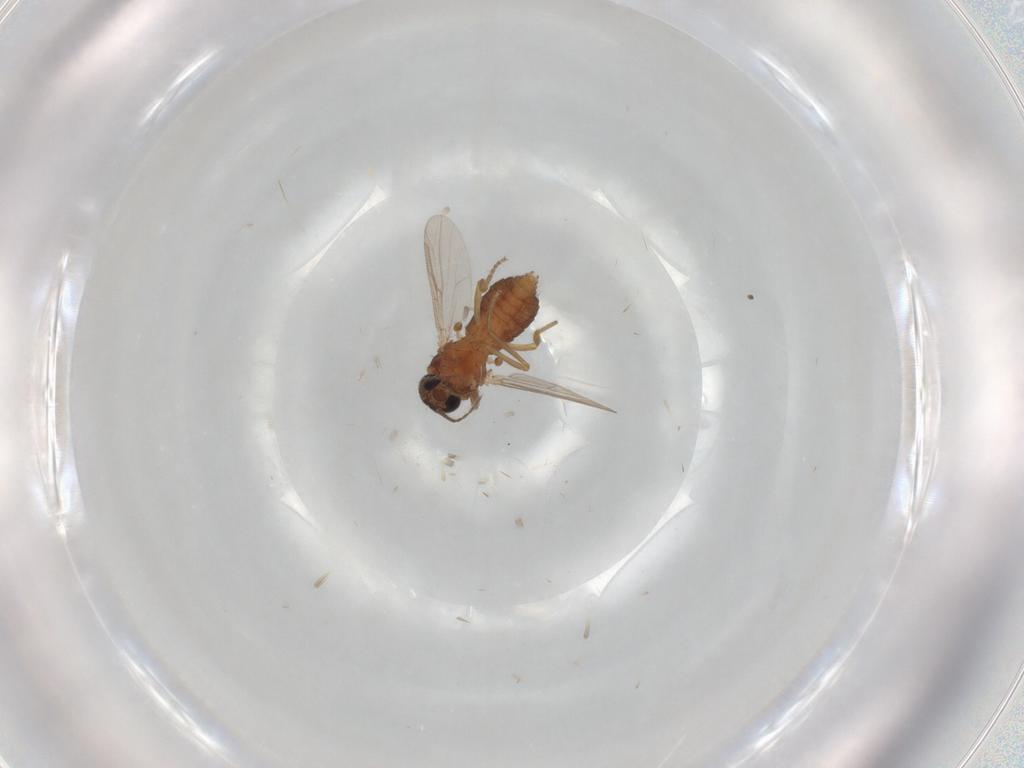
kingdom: Animalia
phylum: Arthropoda
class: Insecta
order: Diptera
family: Ceratopogonidae
